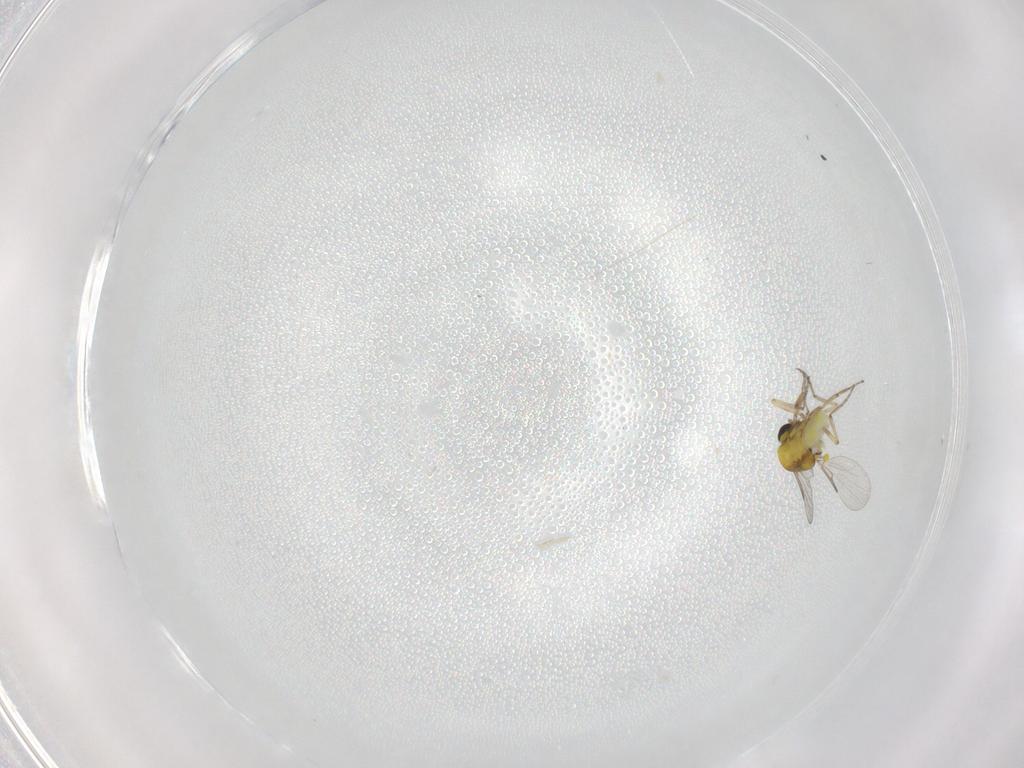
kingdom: Animalia
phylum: Arthropoda
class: Insecta
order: Diptera
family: Ceratopogonidae
